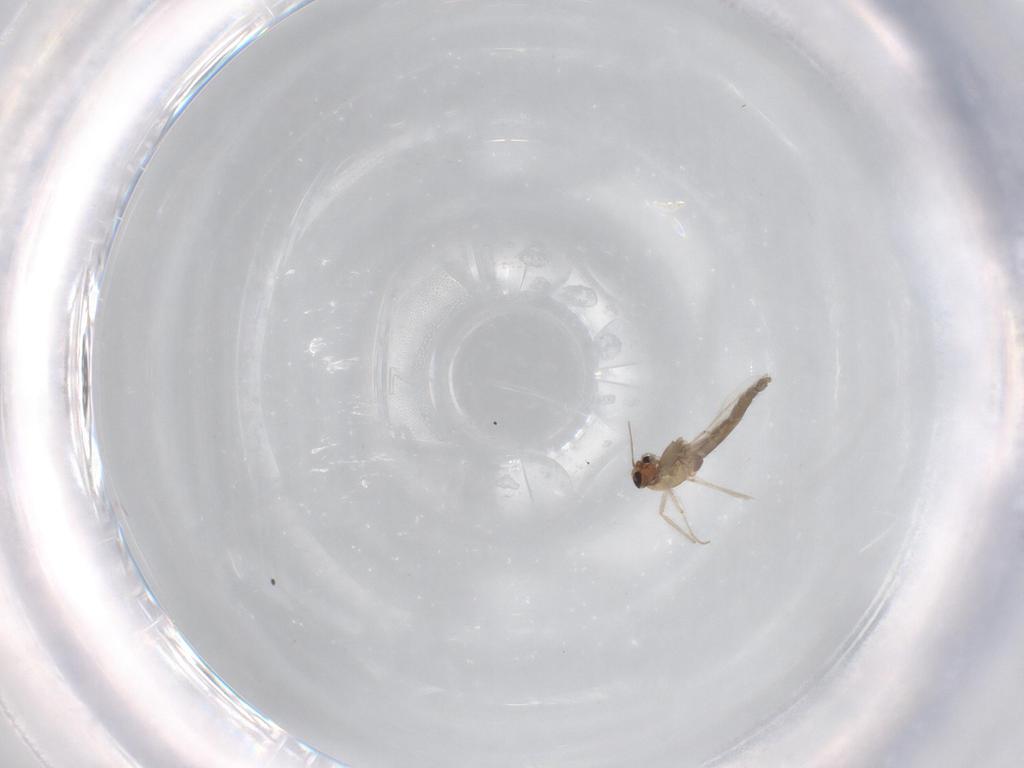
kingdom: Animalia
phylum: Arthropoda
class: Insecta
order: Diptera
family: Chironomidae
